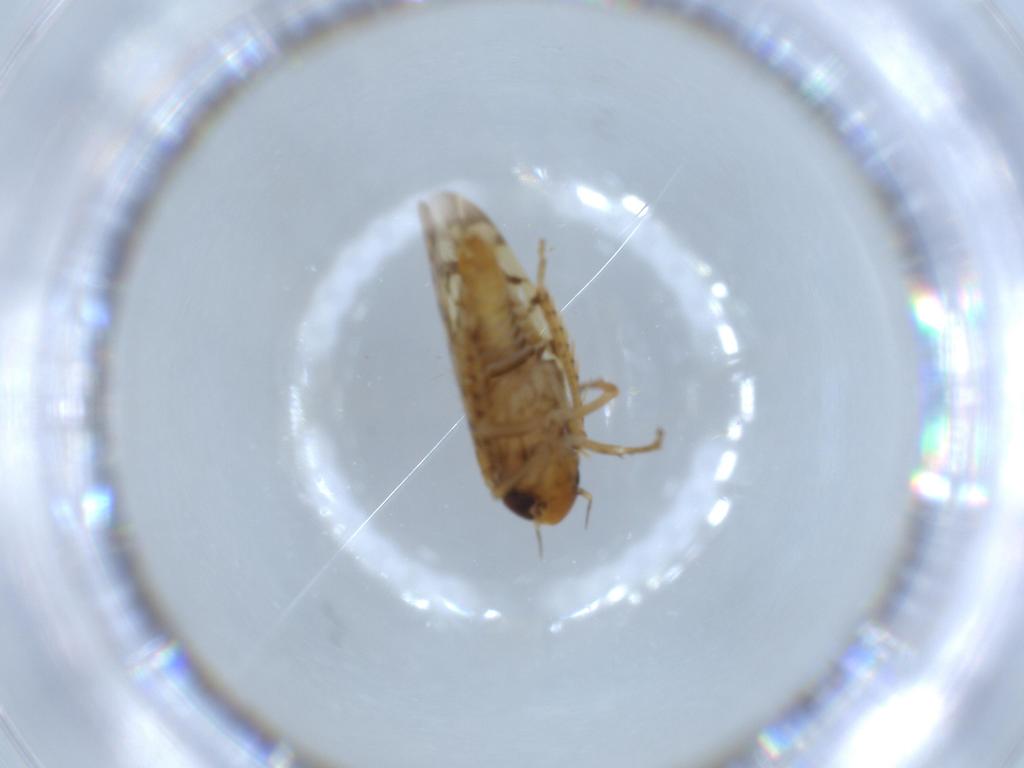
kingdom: Animalia
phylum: Arthropoda
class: Insecta
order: Hemiptera
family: Cicadellidae
